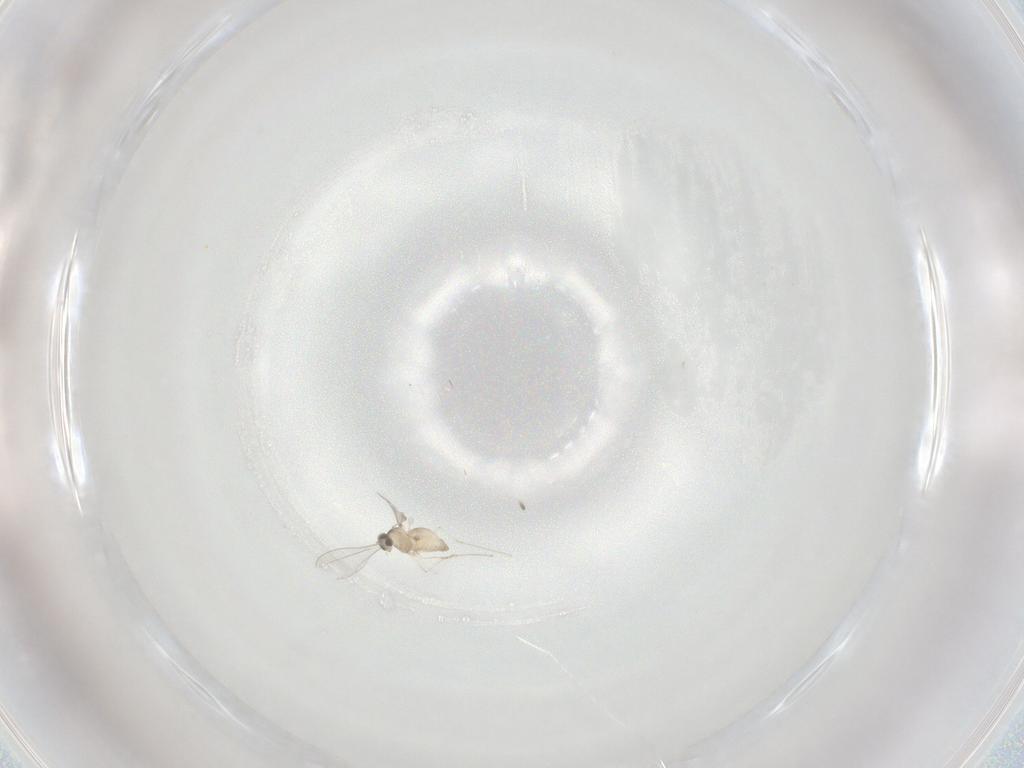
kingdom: Animalia
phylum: Arthropoda
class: Insecta
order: Diptera
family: Cecidomyiidae
